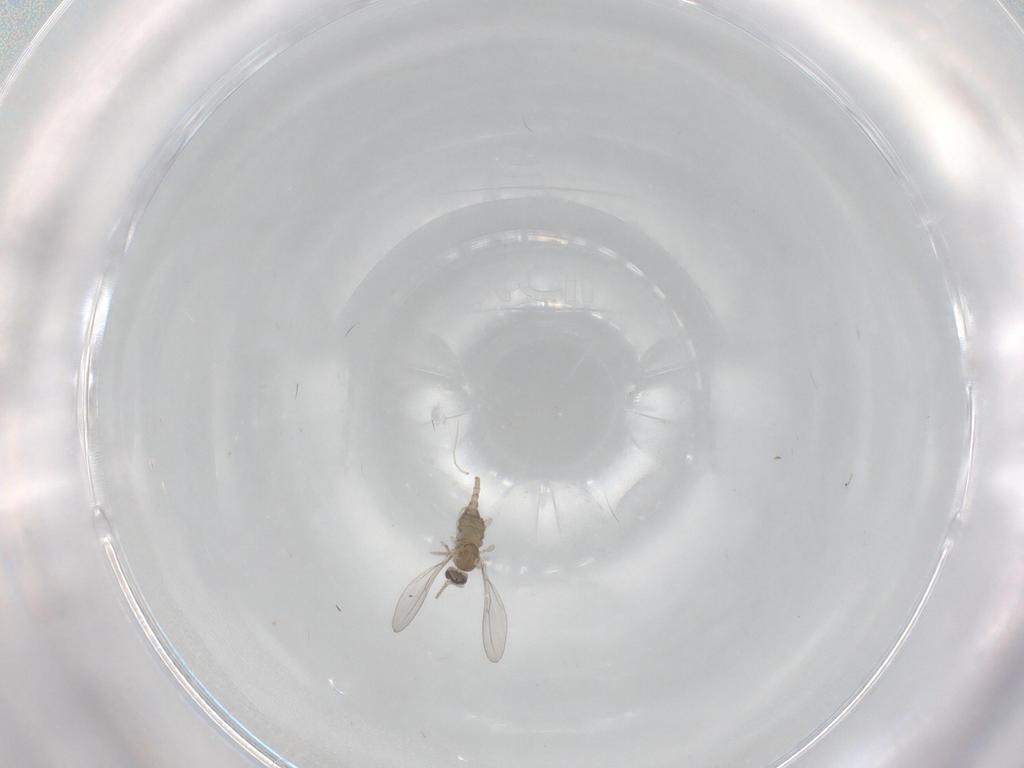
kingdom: Animalia
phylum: Arthropoda
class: Insecta
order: Diptera
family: Cecidomyiidae
